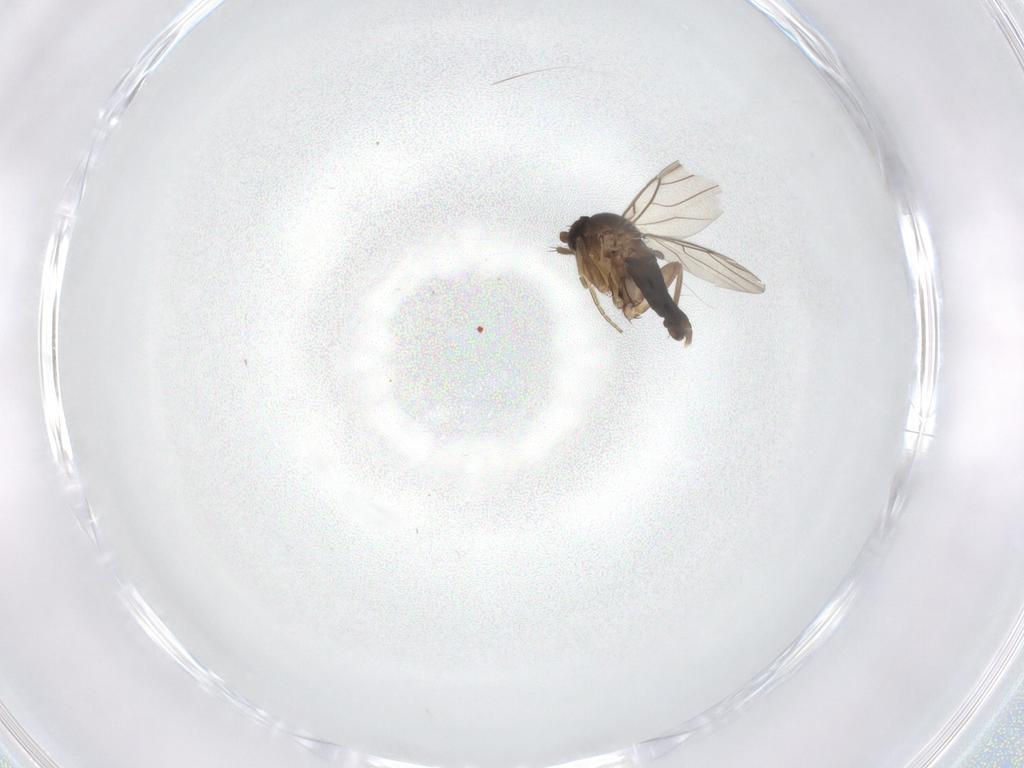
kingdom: Animalia
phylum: Arthropoda
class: Insecta
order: Diptera
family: Phoridae
